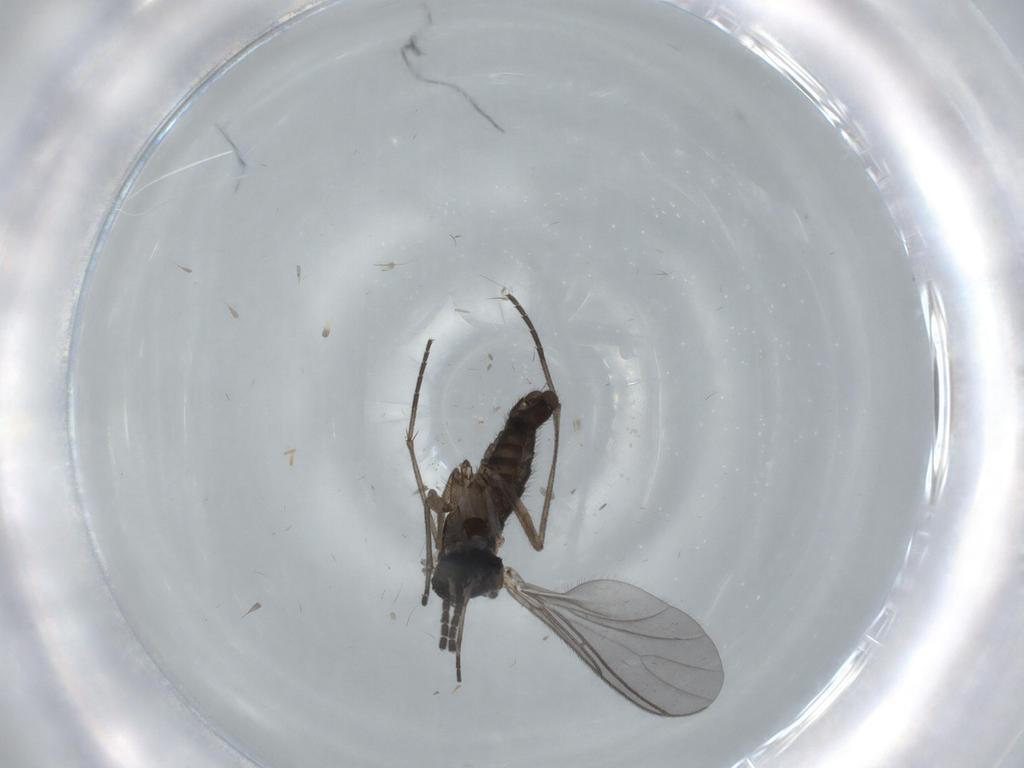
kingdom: Animalia
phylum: Arthropoda
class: Insecta
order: Diptera
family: Sciaridae
